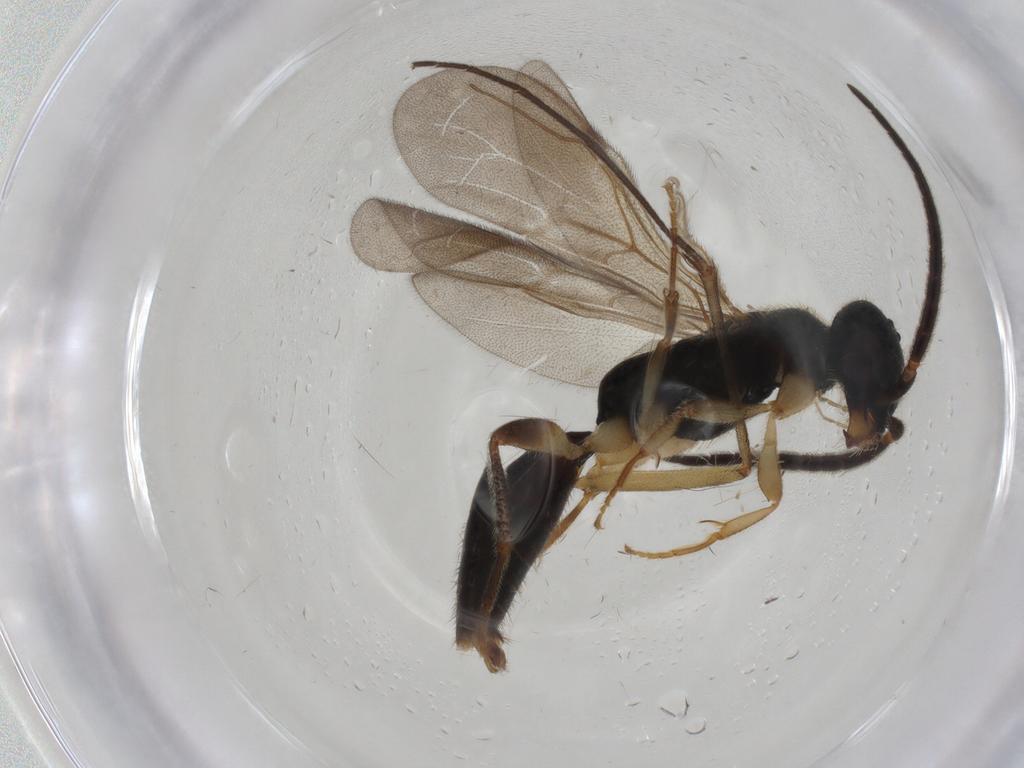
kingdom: Animalia
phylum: Arthropoda
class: Insecta
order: Hymenoptera
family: Bethylidae
